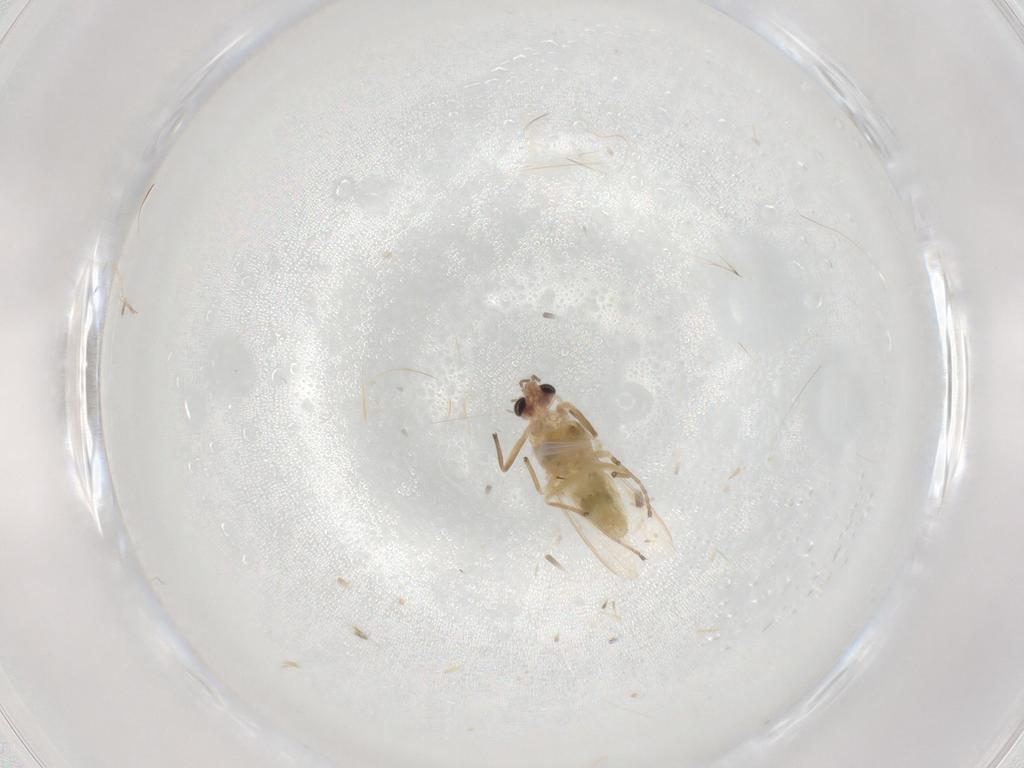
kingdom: Animalia
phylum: Arthropoda
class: Insecta
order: Diptera
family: Chironomidae
